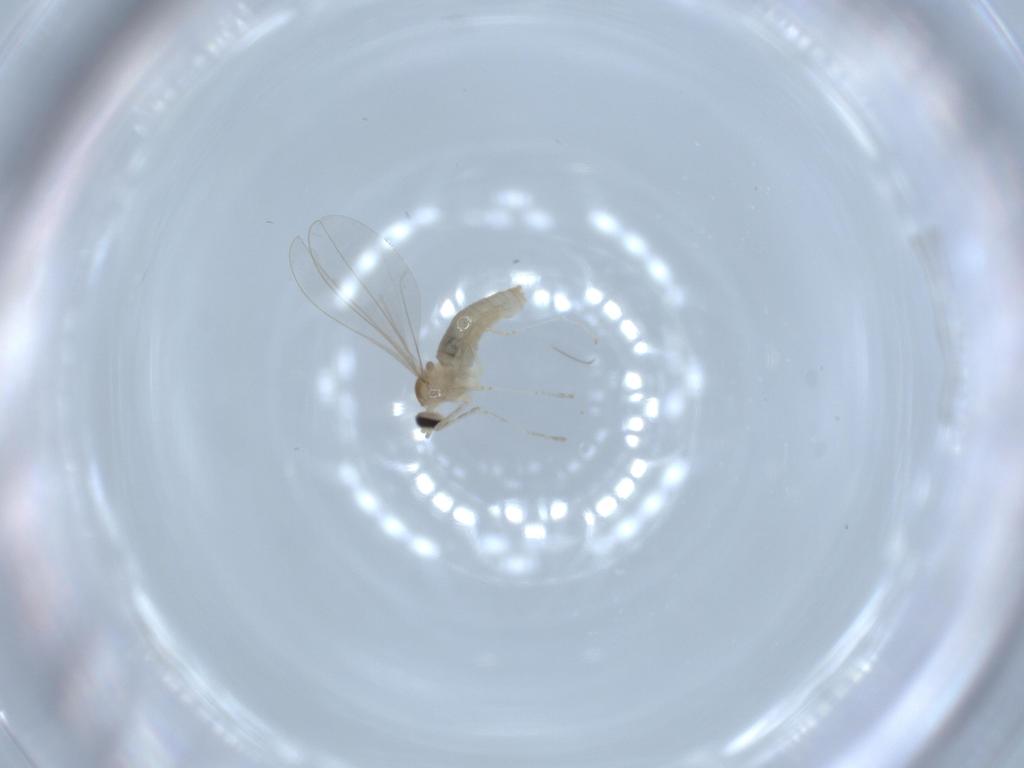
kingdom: Animalia
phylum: Arthropoda
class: Insecta
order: Diptera
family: Cecidomyiidae
